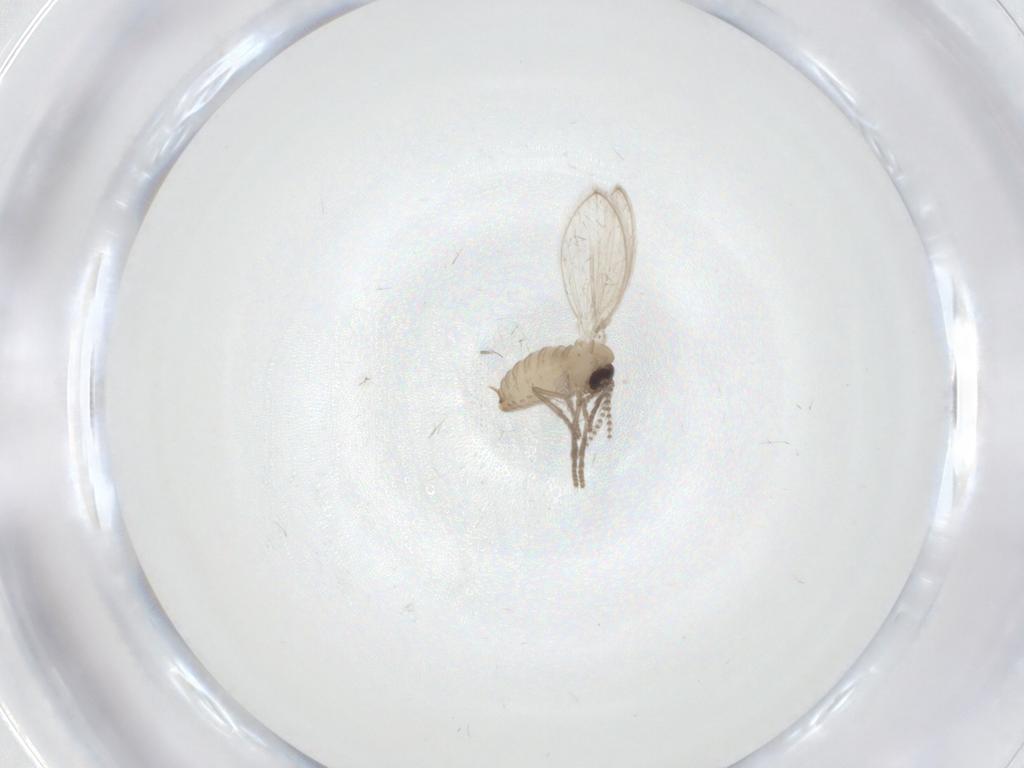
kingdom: Animalia
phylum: Arthropoda
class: Insecta
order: Diptera
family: Psychodidae
